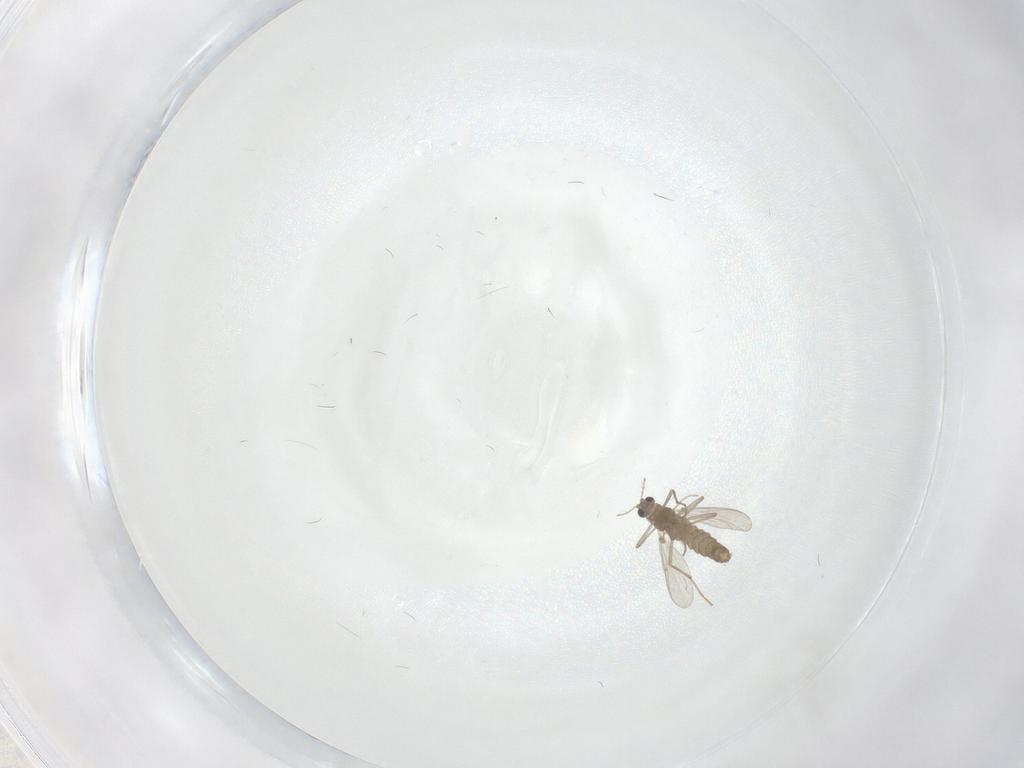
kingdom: Animalia
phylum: Arthropoda
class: Insecta
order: Diptera
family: Chironomidae
